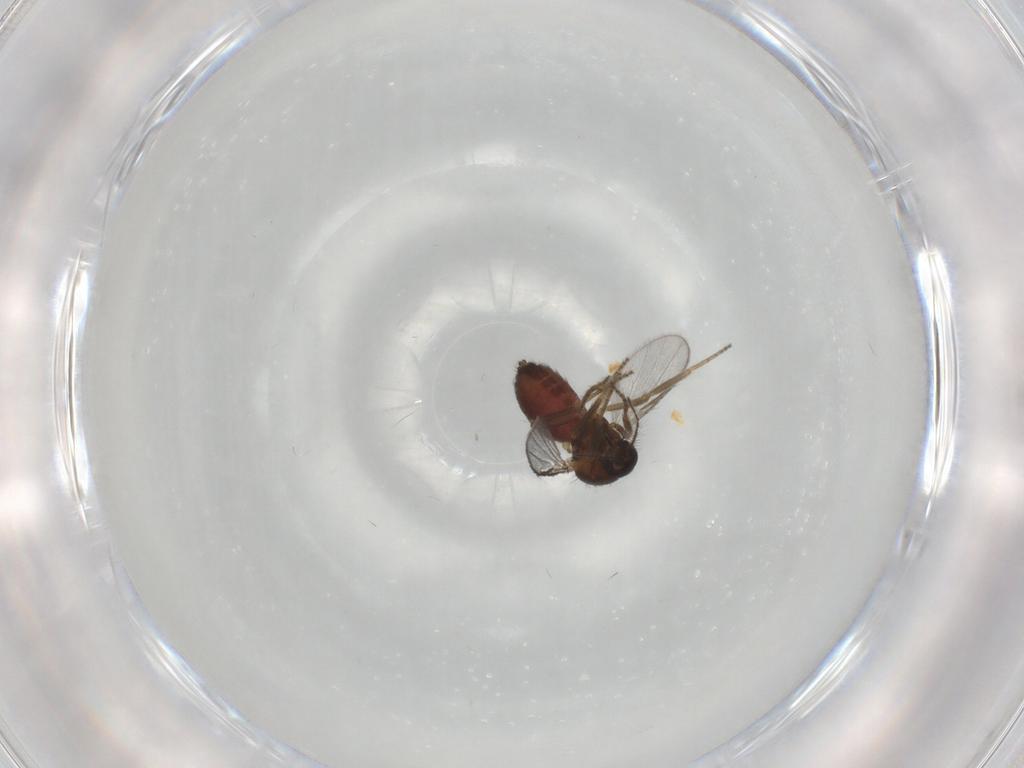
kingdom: Animalia
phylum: Arthropoda
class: Insecta
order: Diptera
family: Ceratopogonidae
